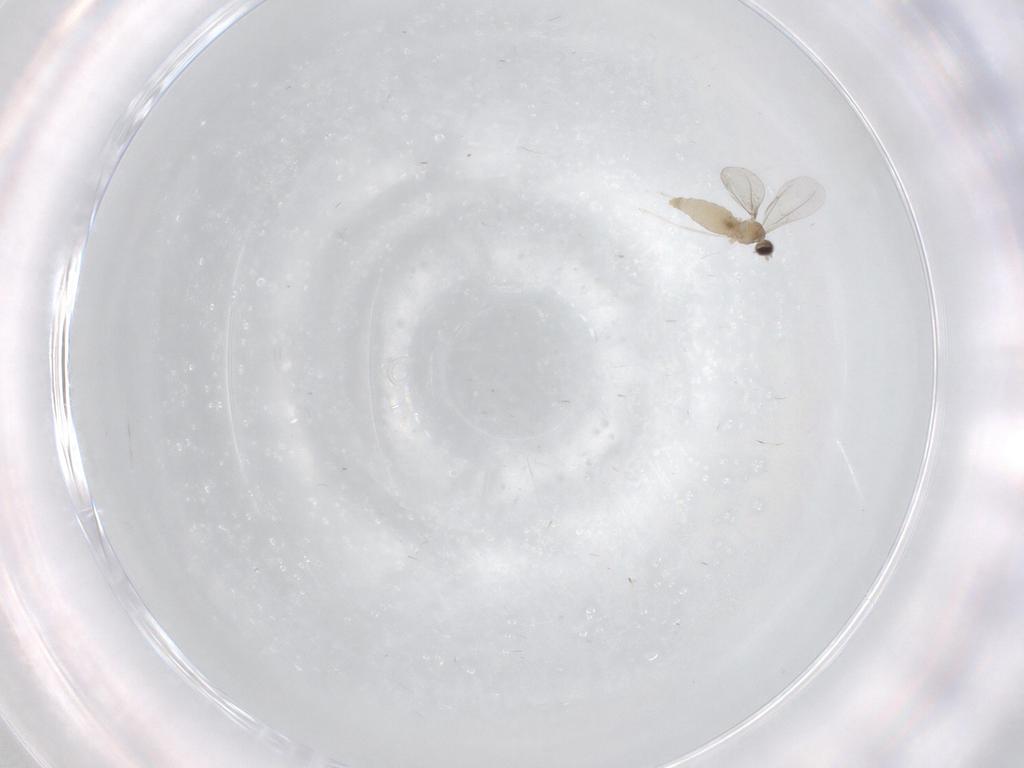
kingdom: Animalia
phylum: Arthropoda
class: Insecta
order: Diptera
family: Cecidomyiidae
